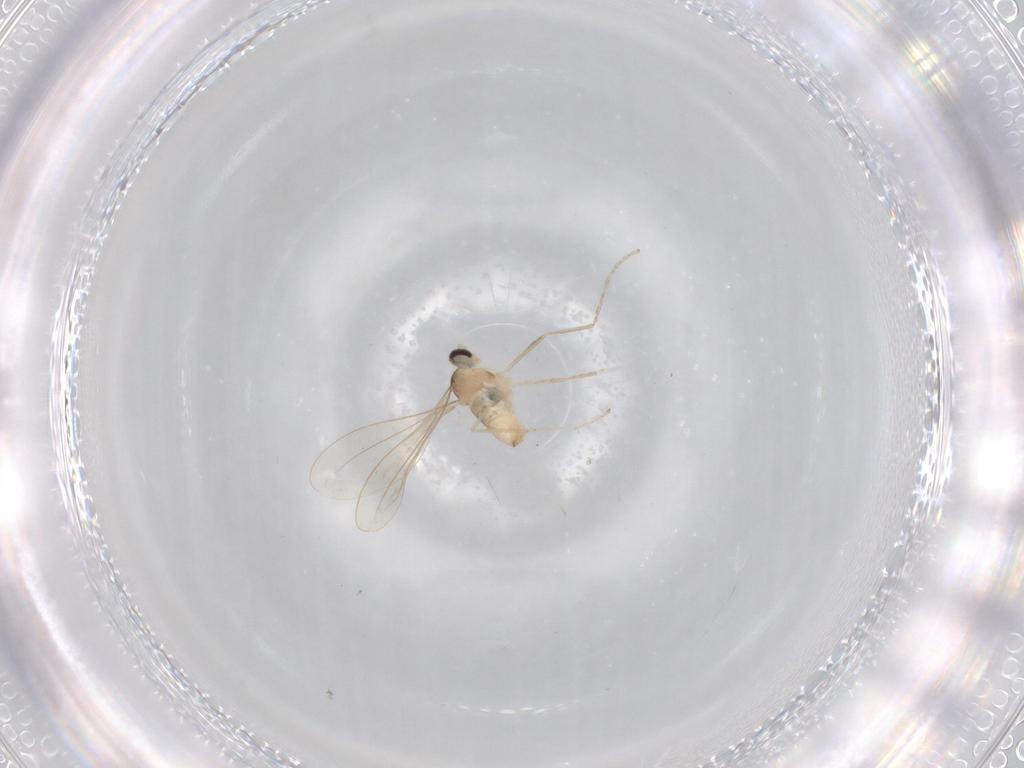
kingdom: Animalia
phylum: Arthropoda
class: Insecta
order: Diptera
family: Cecidomyiidae
